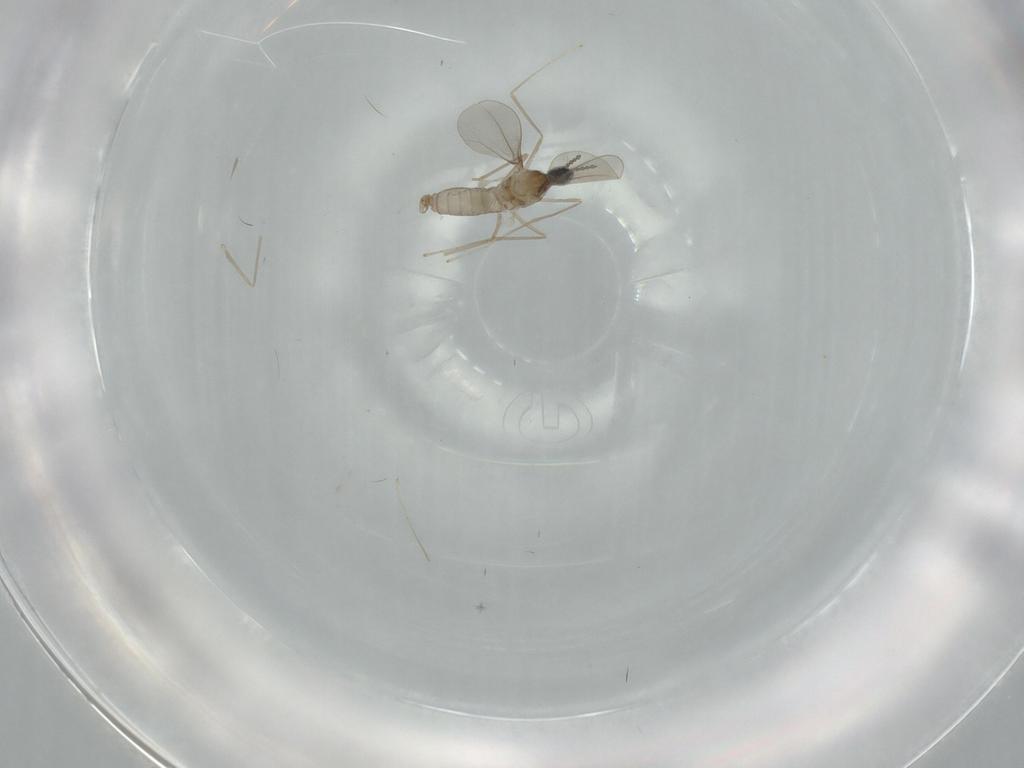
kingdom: Animalia
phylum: Arthropoda
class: Insecta
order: Diptera
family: Cecidomyiidae
